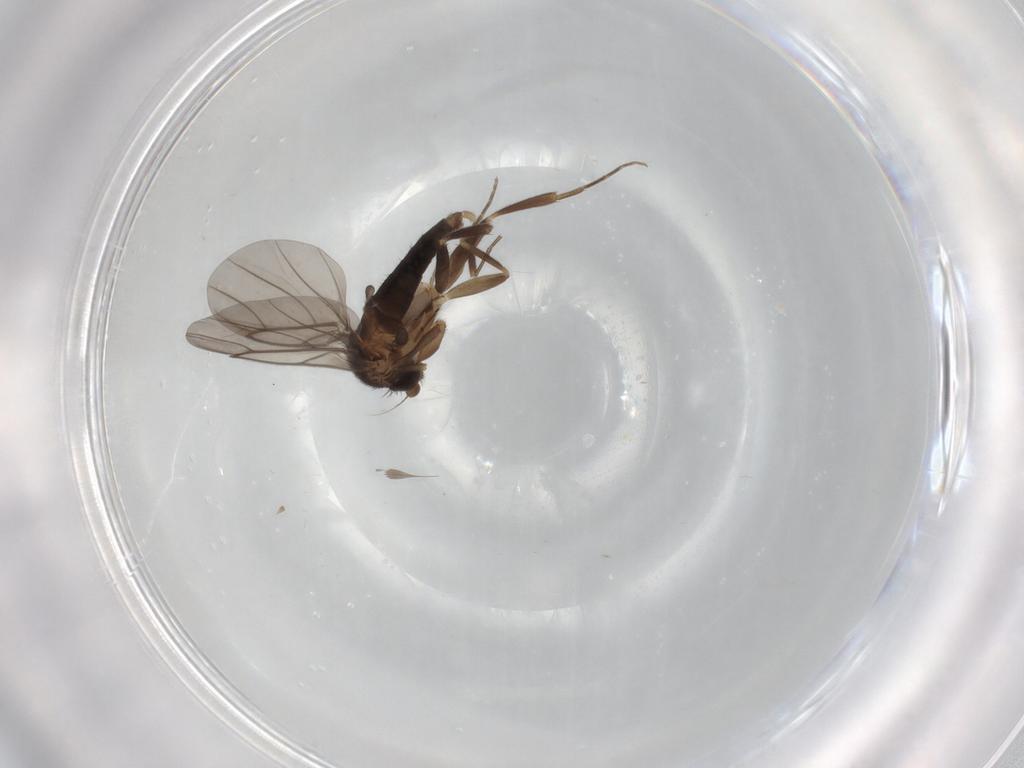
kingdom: Animalia
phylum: Arthropoda
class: Insecta
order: Diptera
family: Phoridae
